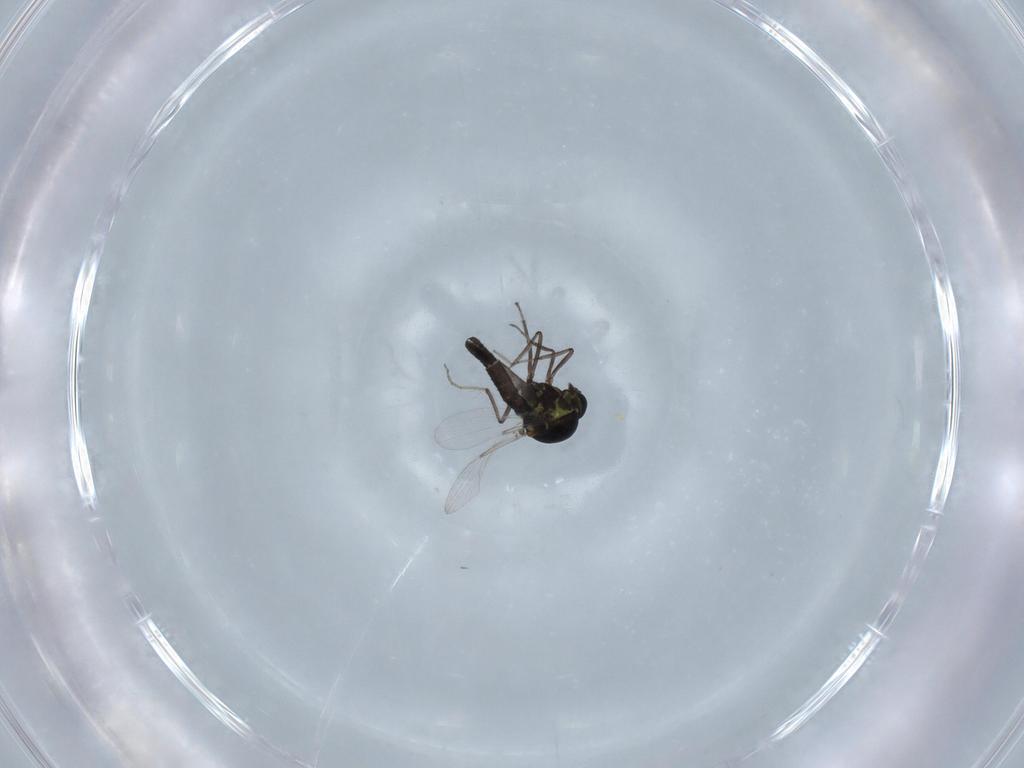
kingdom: Animalia
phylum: Arthropoda
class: Insecta
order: Diptera
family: Ceratopogonidae
